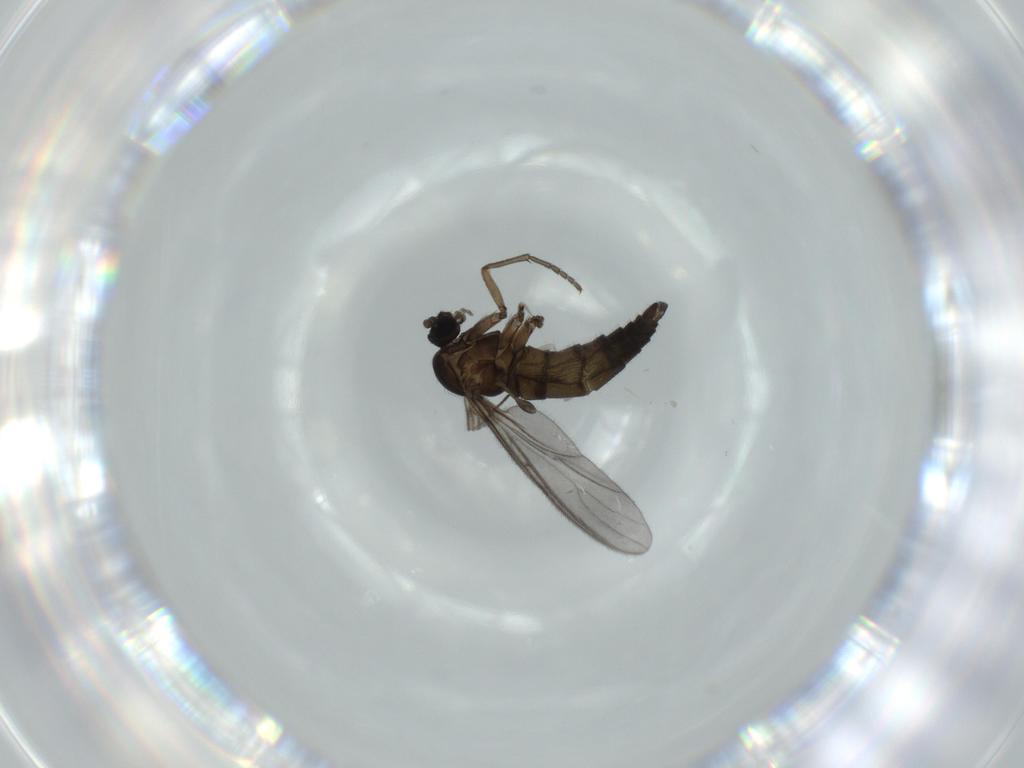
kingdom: Animalia
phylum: Arthropoda
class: Insecta
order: Diptera
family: Sciaridae
